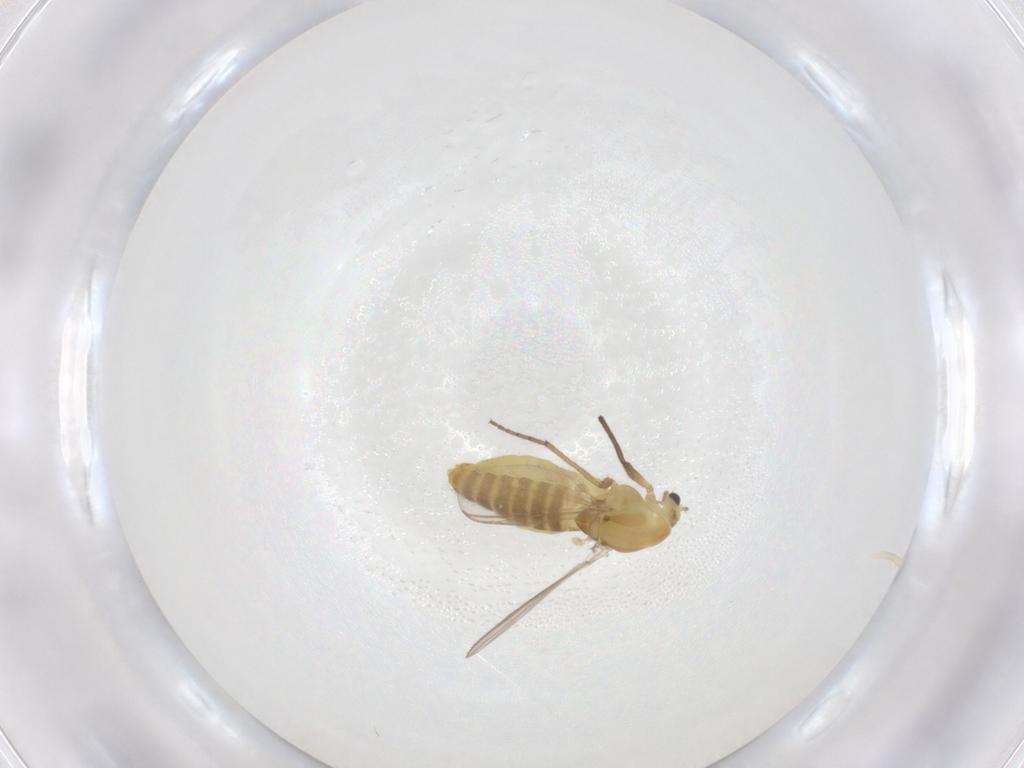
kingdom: Animalia
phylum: Arthropoda
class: Insecta
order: Diptera
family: Chironomidae
